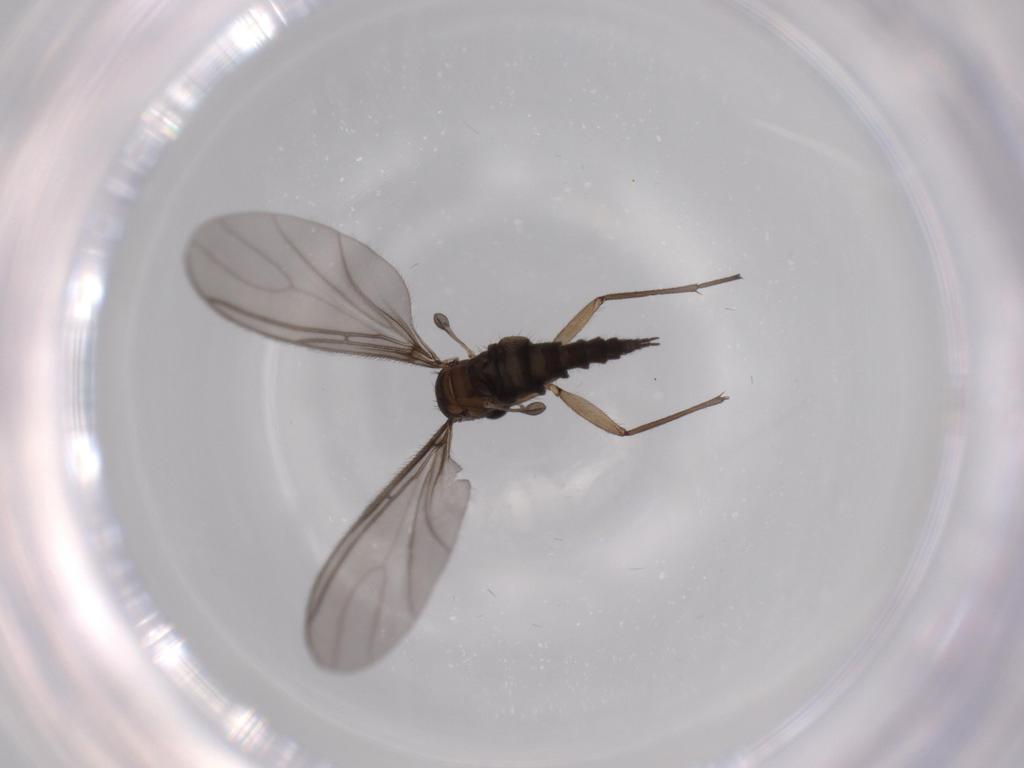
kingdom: Animalia
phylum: Arthropoda
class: Insecta
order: Diptera
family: Sciaridae
